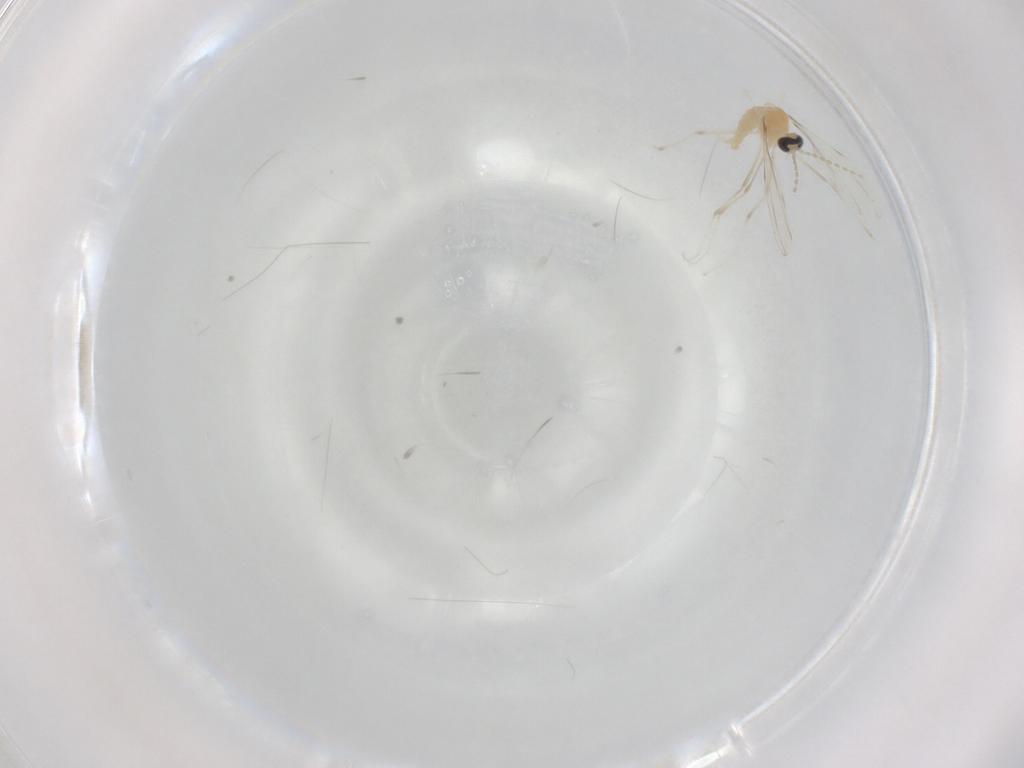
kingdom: Animalia
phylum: Arthropoda
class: Insecta
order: Diptera
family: Cecidomyiidae
